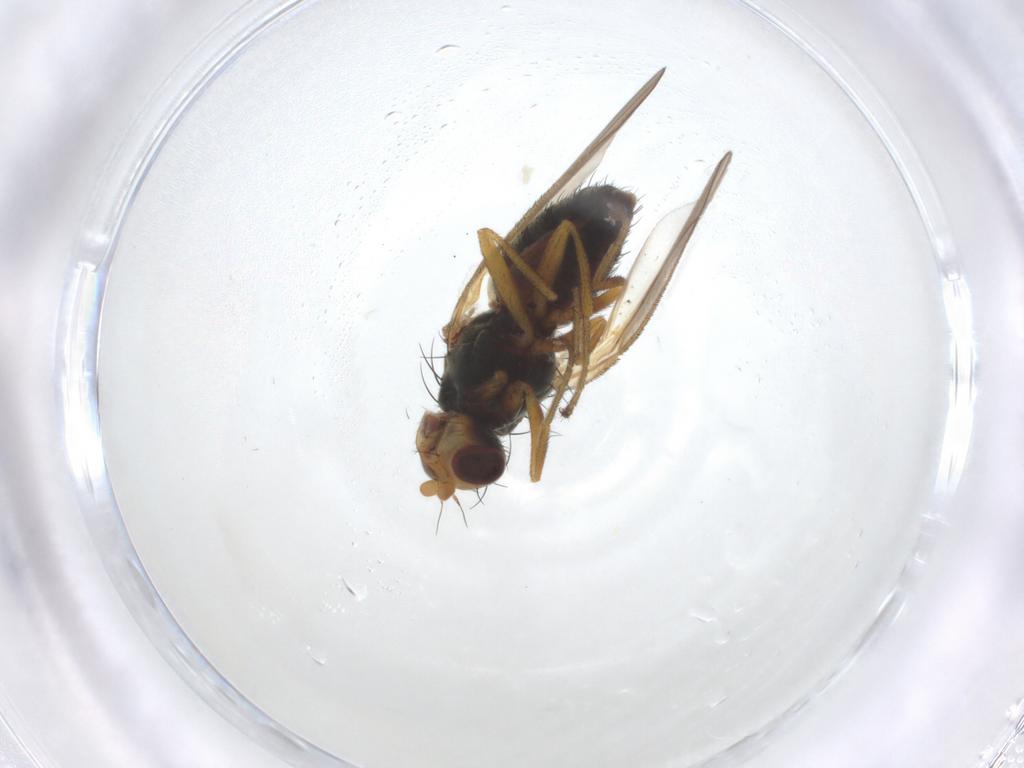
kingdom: Animalia
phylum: Arthropoda
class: Insecta
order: Diptera
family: Heleomyzidae
